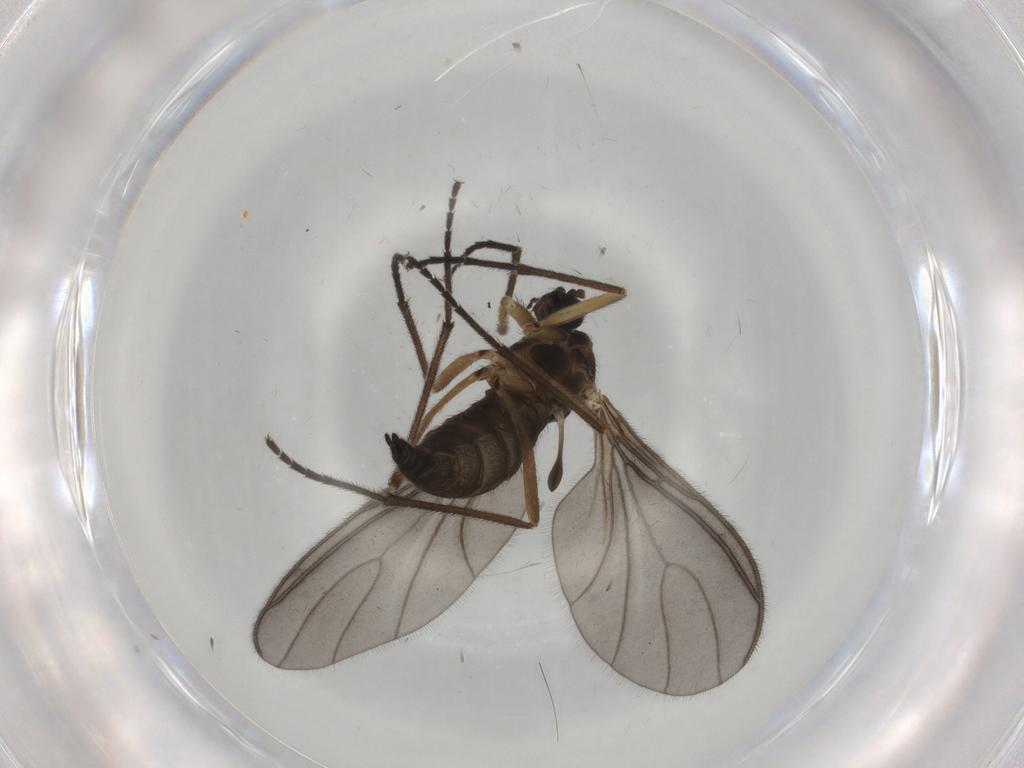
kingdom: Animalia
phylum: Arthropoda
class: Insecta
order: Diptera
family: Sciaridae
